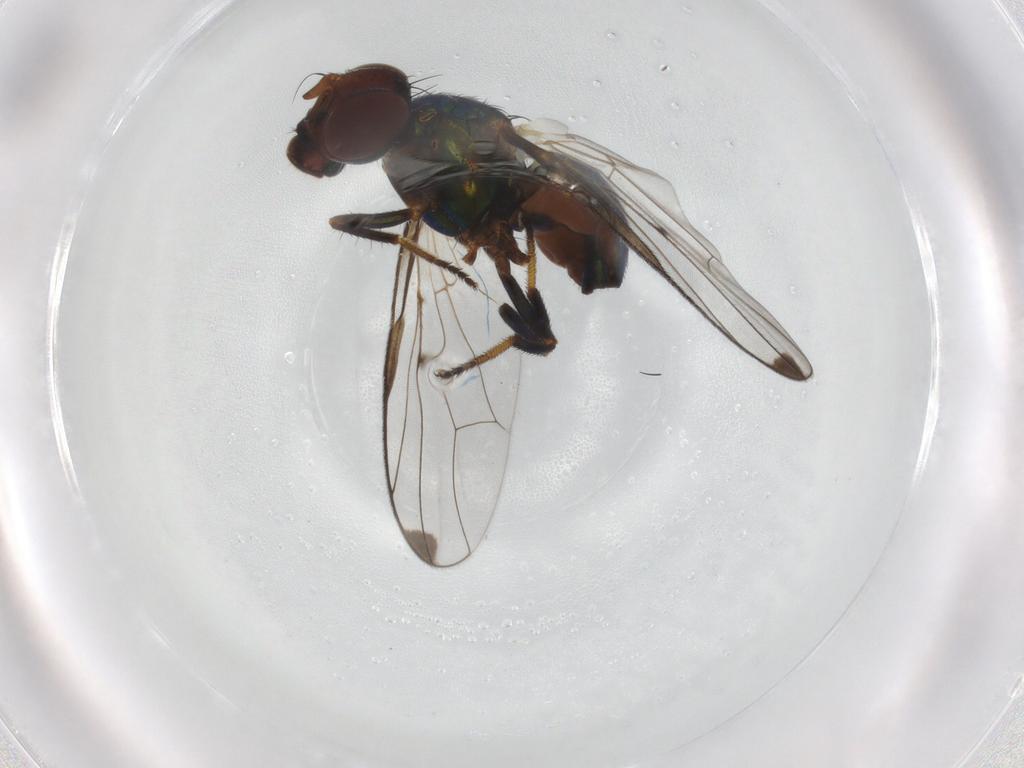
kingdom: Animalia
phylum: Arthropoda
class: Insecta
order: Diptera
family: Platystomatidae
